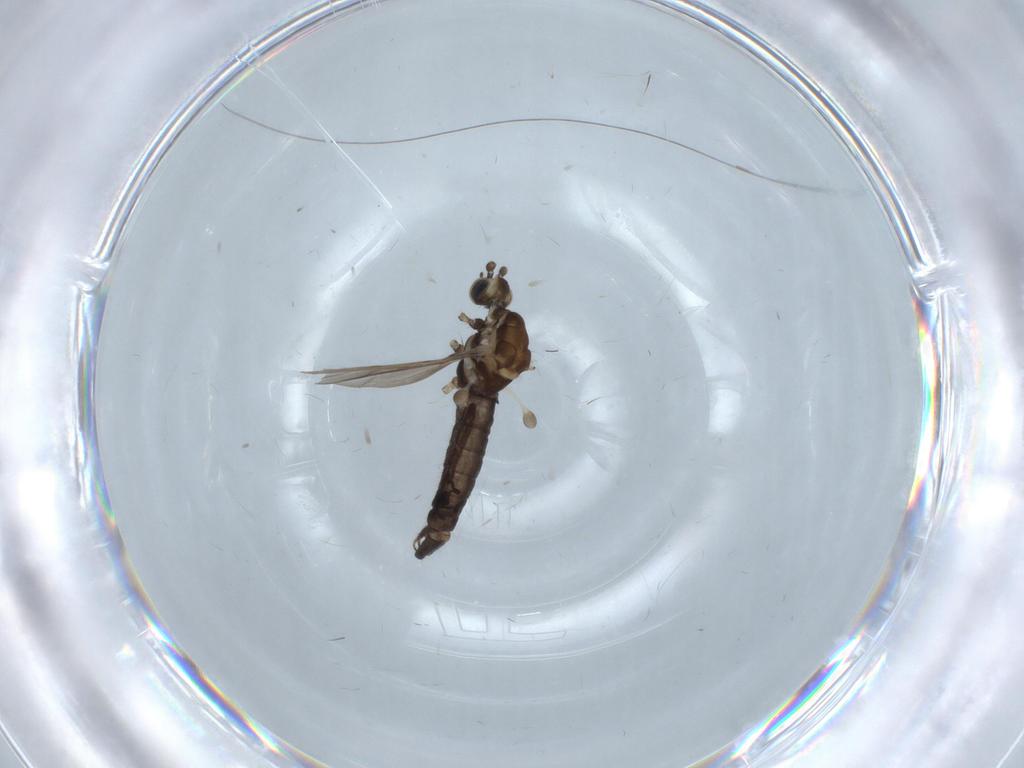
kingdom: Animalia
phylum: Arthropoda
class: Insecta
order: Diptera
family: Limoniidae
